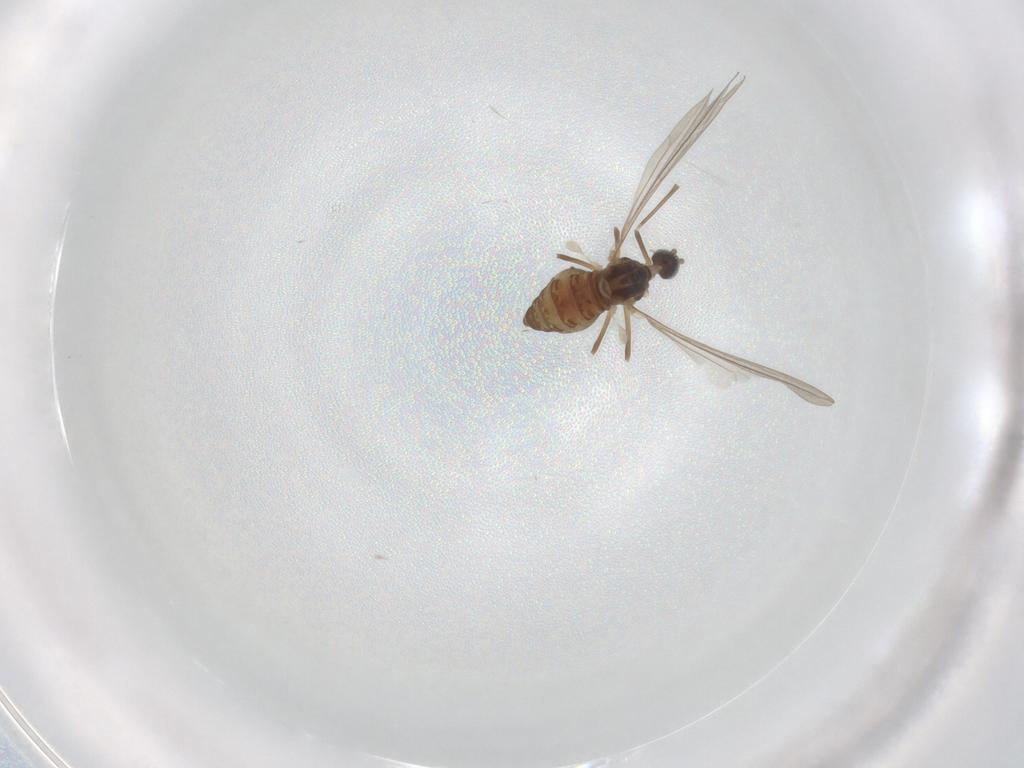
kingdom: Animalia
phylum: Arthropoda
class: Insecta
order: Diptera
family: Cecidomyiidae
